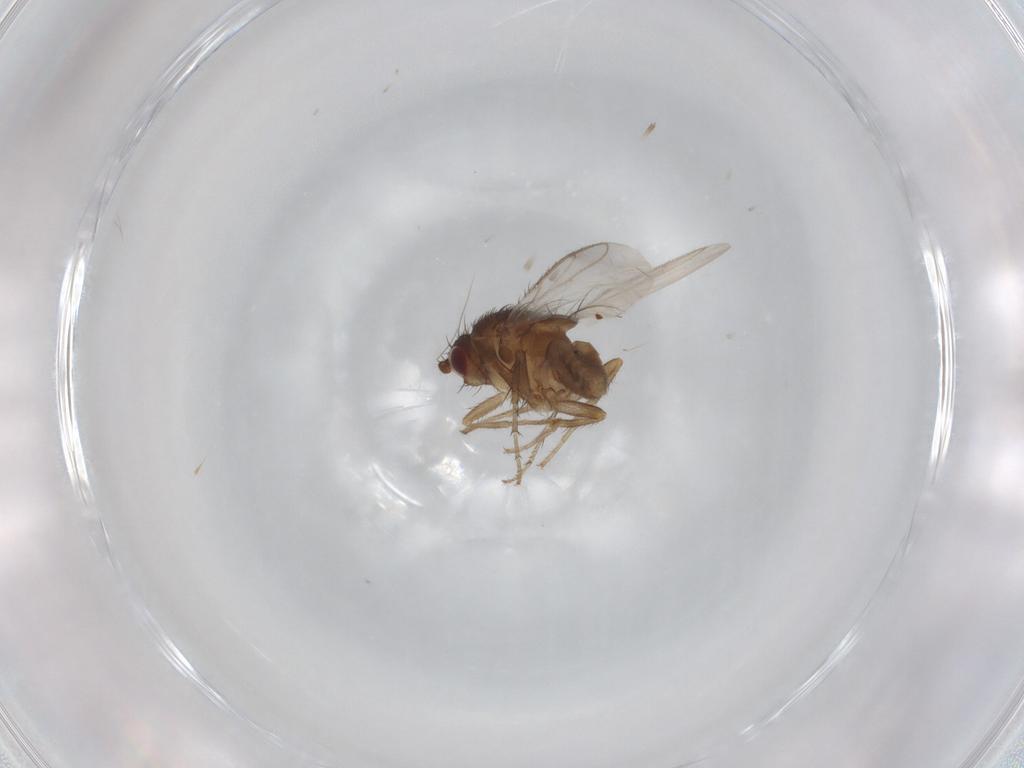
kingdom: Animalia
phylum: Arthropoda
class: Insecta
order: Diptera
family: Sphaeroceridae
